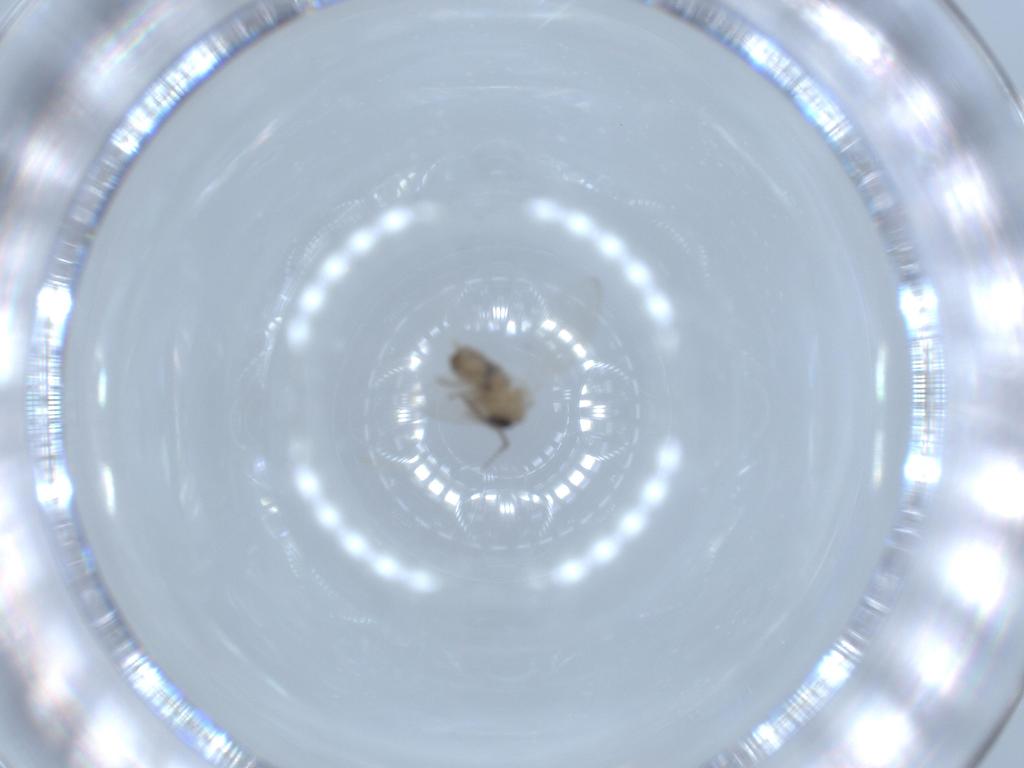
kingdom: Animalia
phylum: Arthropoda
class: Insecta
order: Diptera
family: Psychodidae
